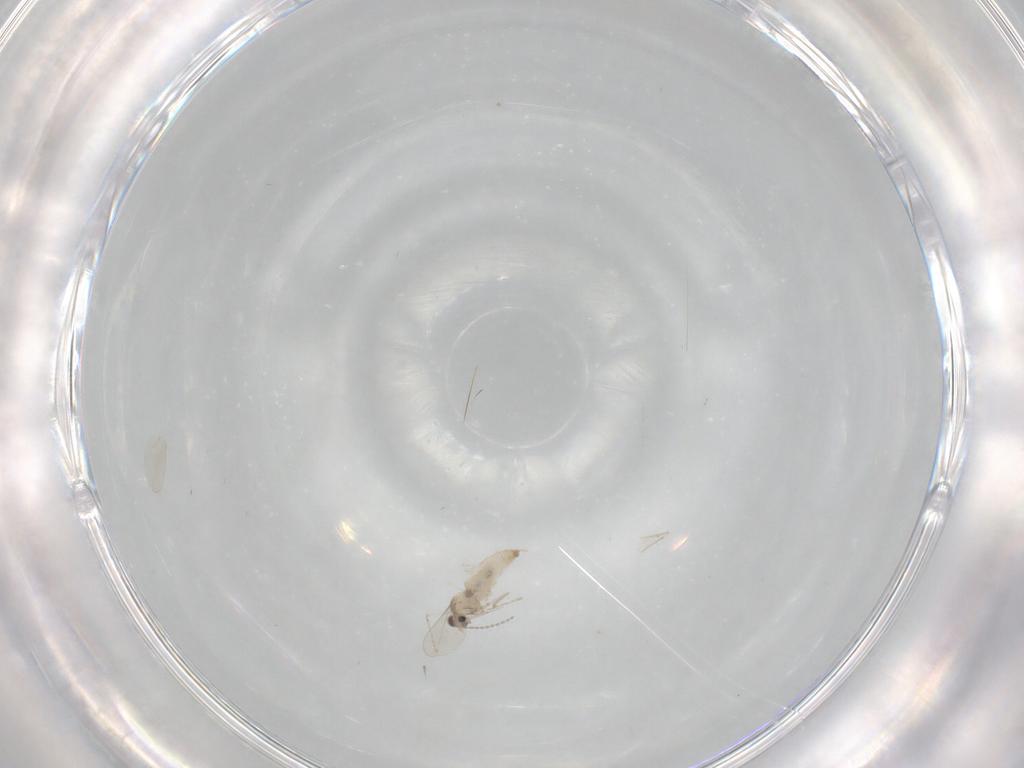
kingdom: Animalia
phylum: Arthropoda
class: Insecta
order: Diptera
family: Cecidomyiidae
